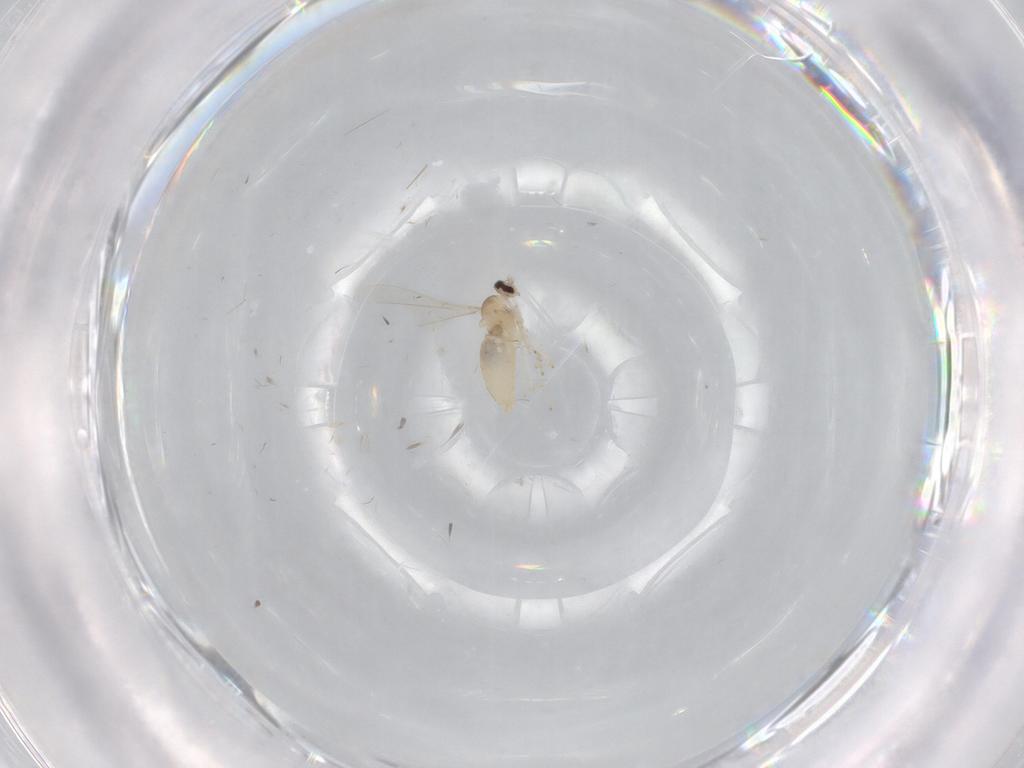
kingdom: Animalia
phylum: Arthropoda
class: Insecta
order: Diptera
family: Cecidomyiidae
